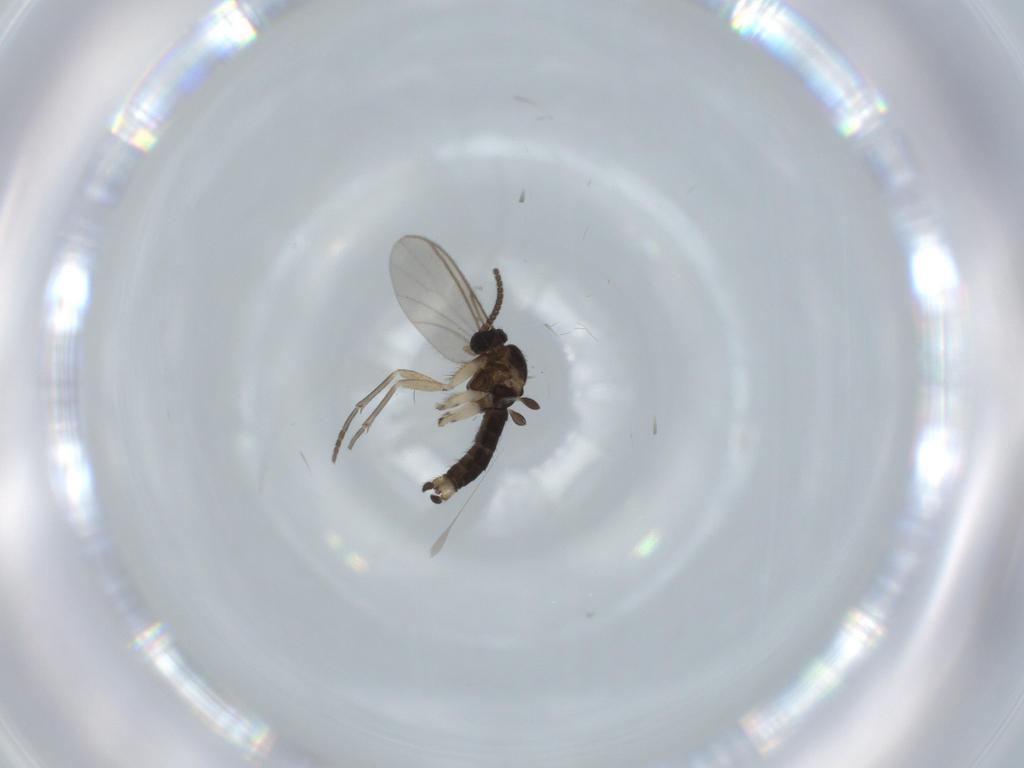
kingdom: Animalia
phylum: Arthropoda
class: Insecta
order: Diptera
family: Sciaridae
